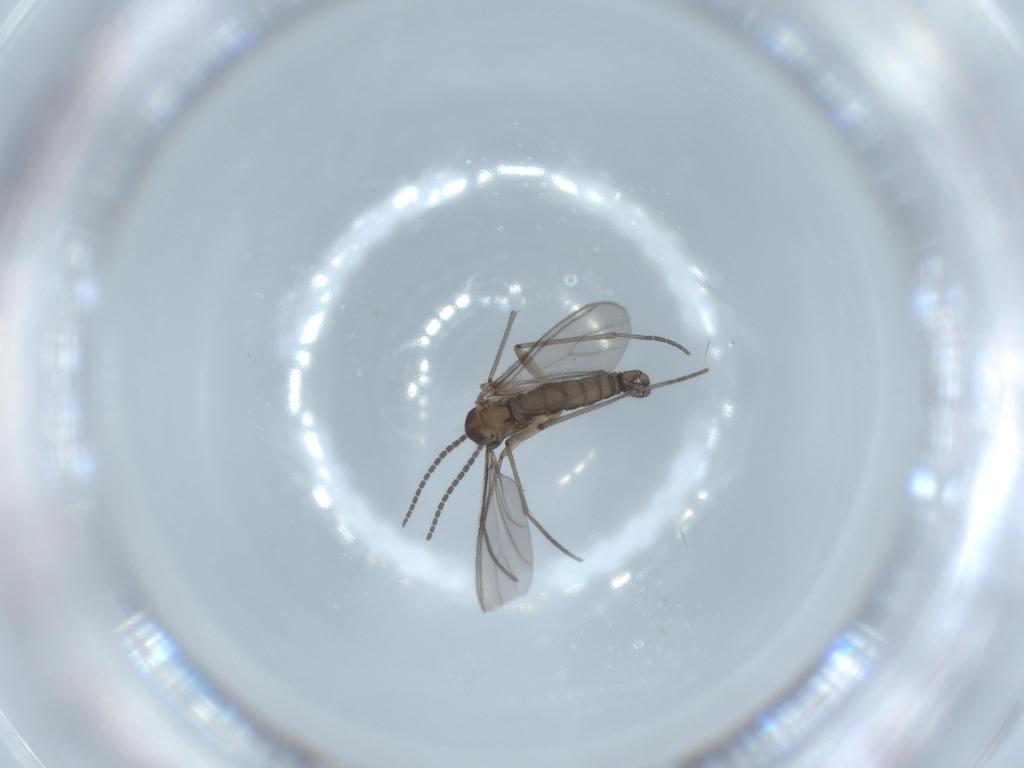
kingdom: Animalia
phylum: Arthropoda
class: Insecta
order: Diptera
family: Sciaridae
